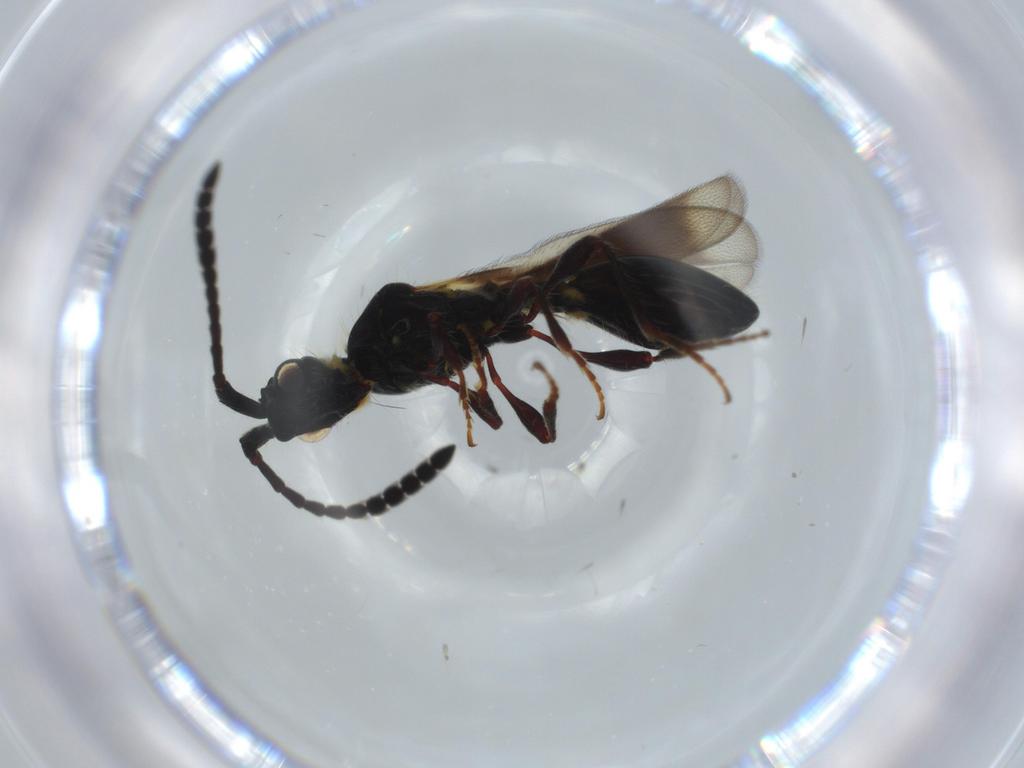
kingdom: Animalia
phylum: Arthropoda
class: Insecta
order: Hymenoptera
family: Diapriidae
